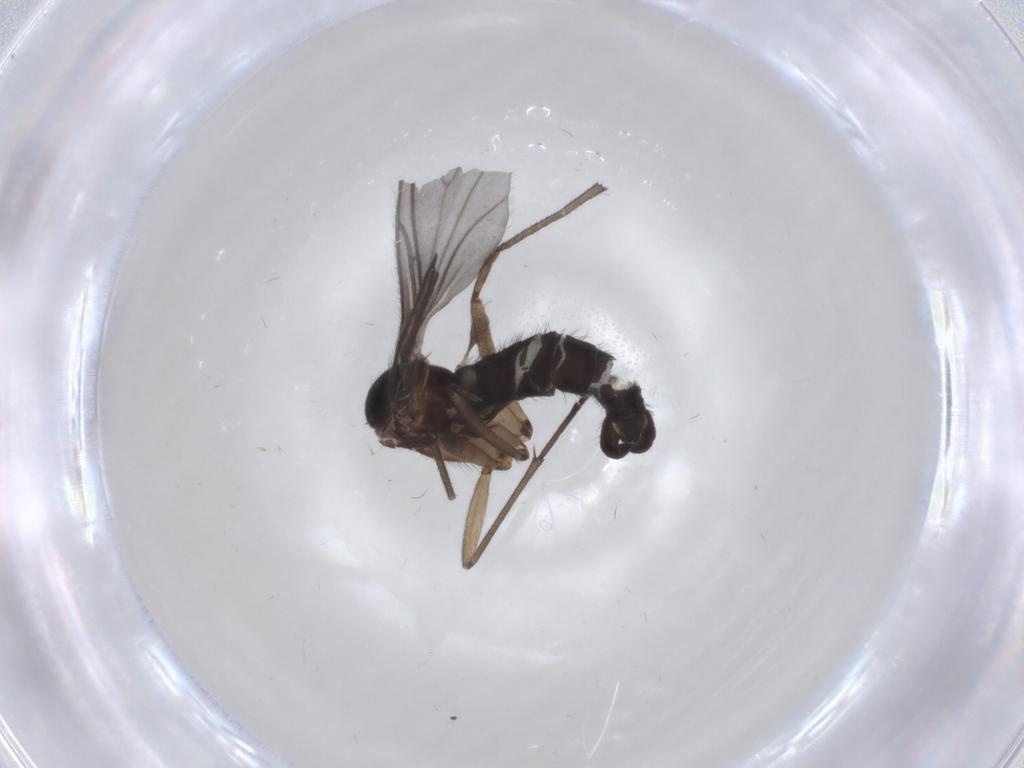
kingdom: Animalia
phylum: Arthropoda
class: Insecta
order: Diptera
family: Sciaridae
